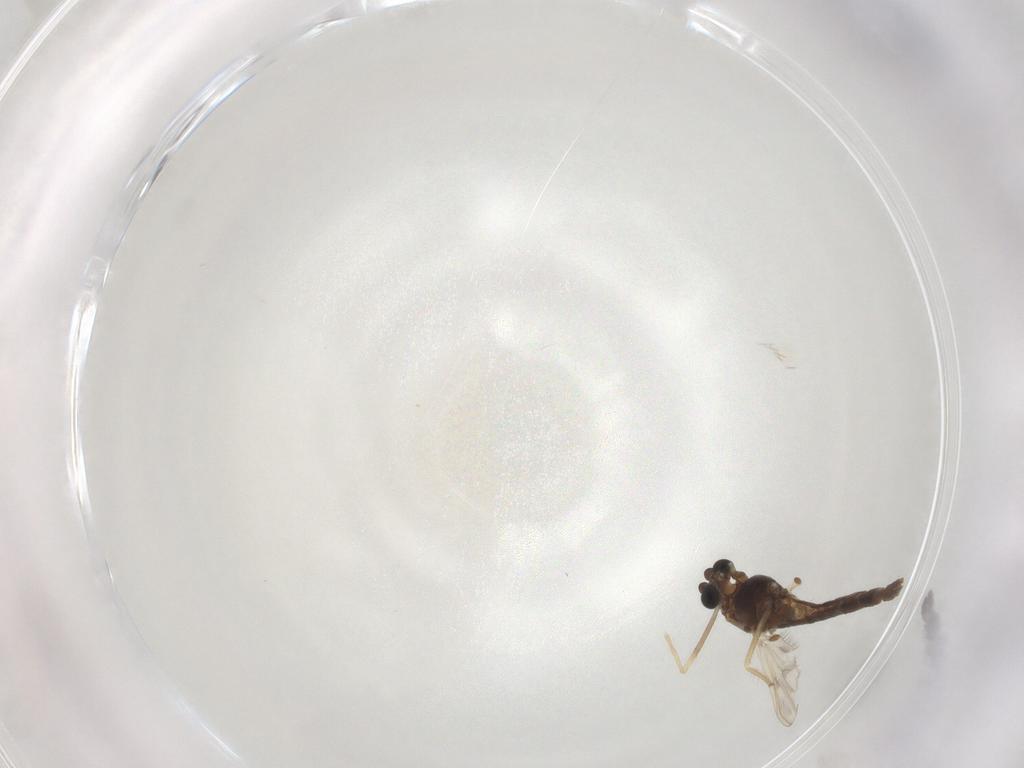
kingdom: Animalia
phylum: Arthropoda
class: Insecta
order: Diptera
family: Chironomidae
